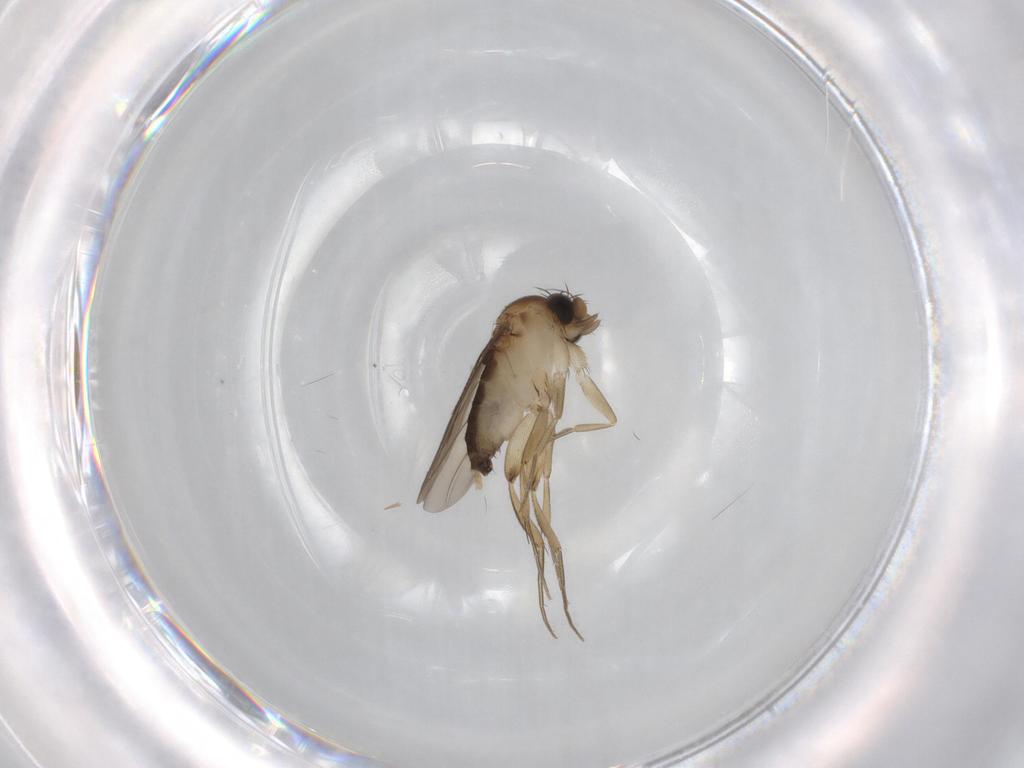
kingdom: Animalia
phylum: Arthropoda
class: Insecta
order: Diptera
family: Phoridae
